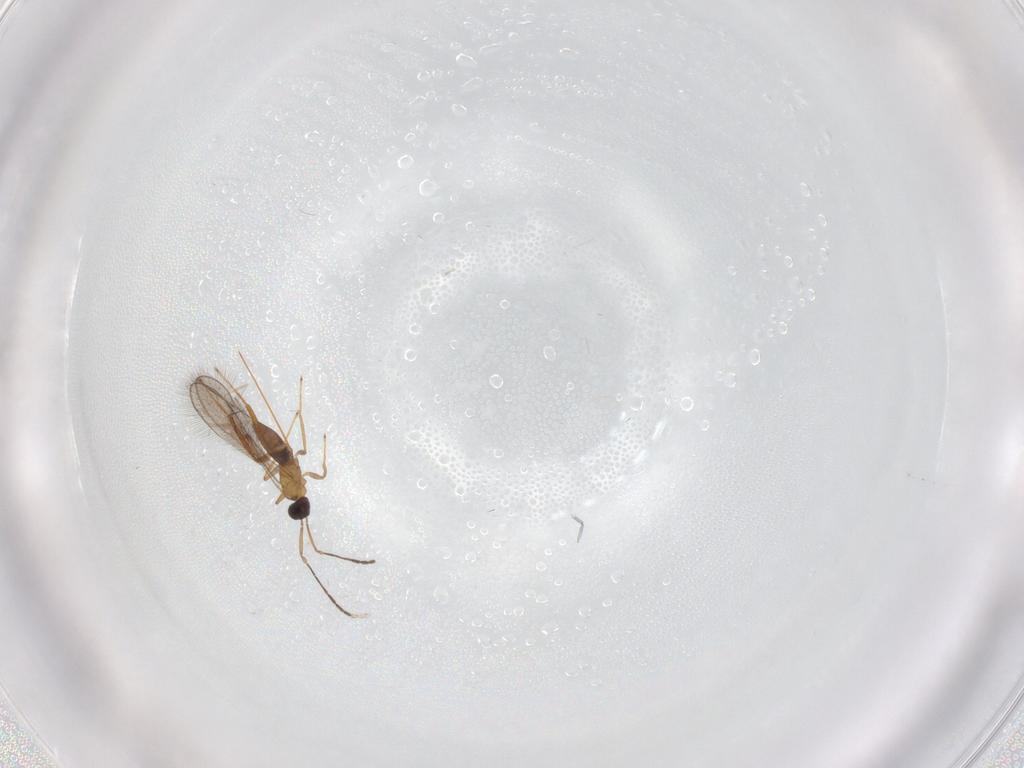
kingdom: Animalia
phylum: Arthropoda
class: Insecta
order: Hymenoptera
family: Mymaridae
